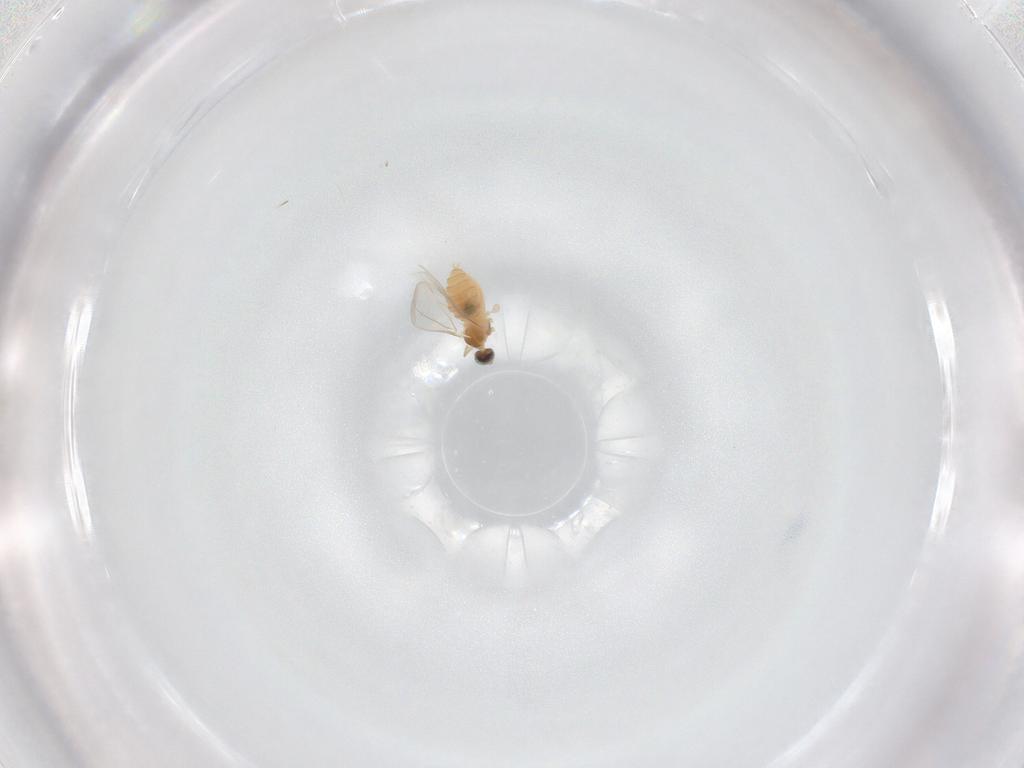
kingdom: Animalia
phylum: Arthropoda
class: Insecta
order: Diptera
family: Cecidomyiidae
